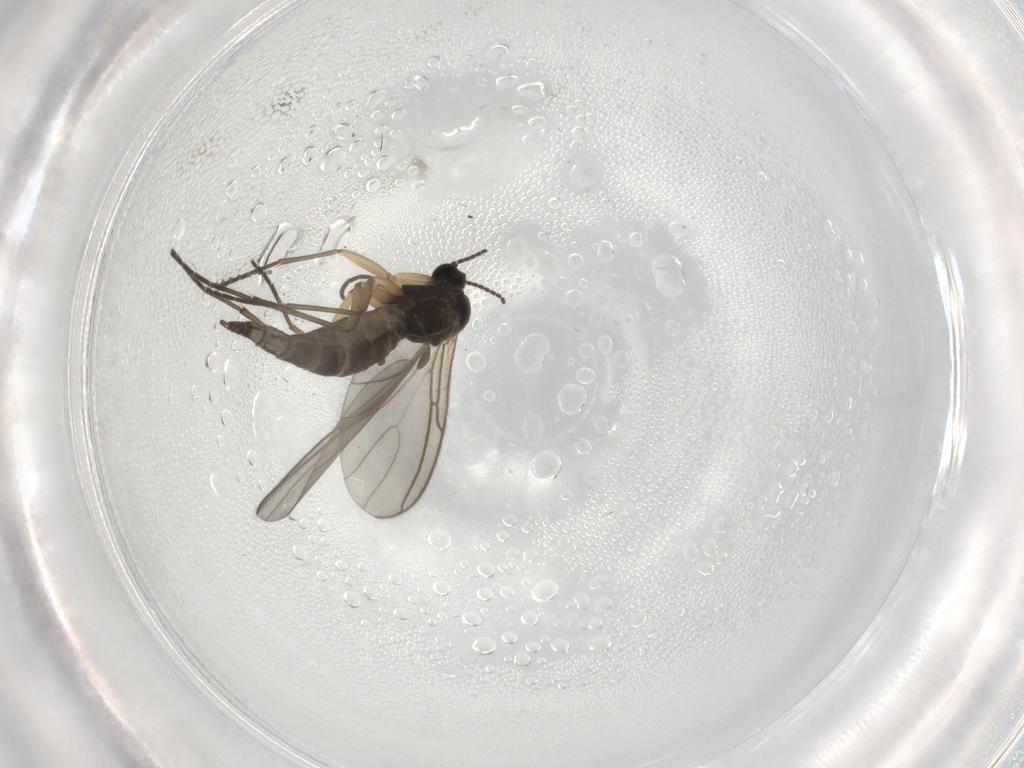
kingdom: Animalia
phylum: Arthropoda
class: Insecta
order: Diptera
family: Sciaridae
